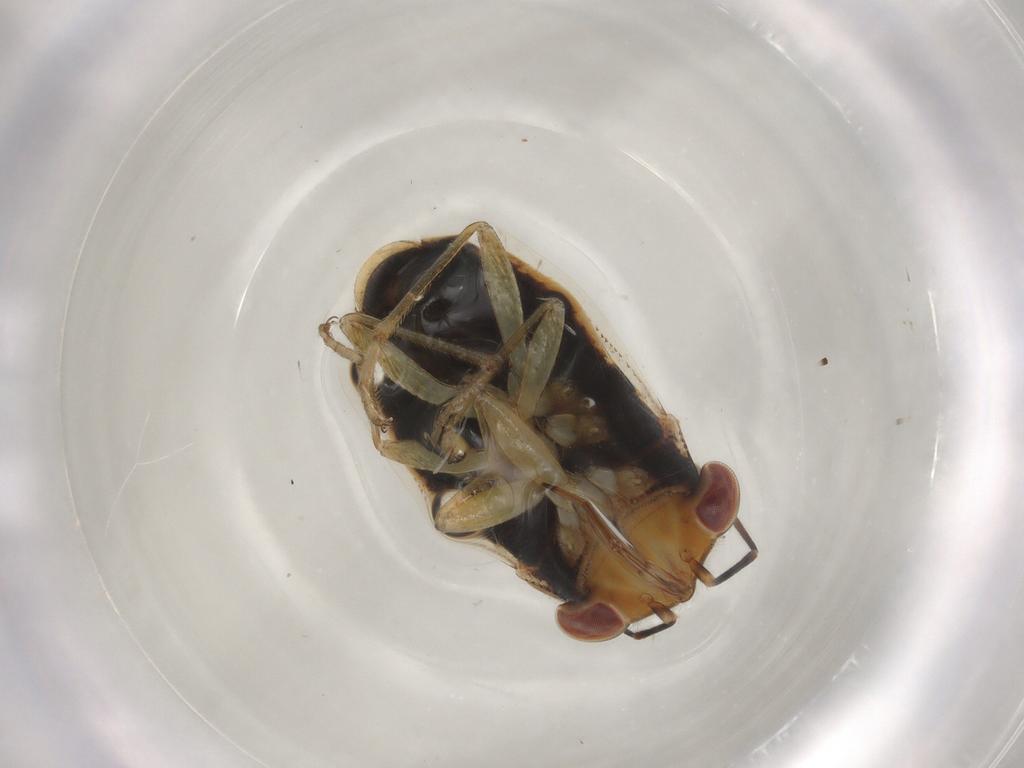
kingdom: Animalia
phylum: Arthropoda
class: Insecta
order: Hemiptera
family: Geocoridae
